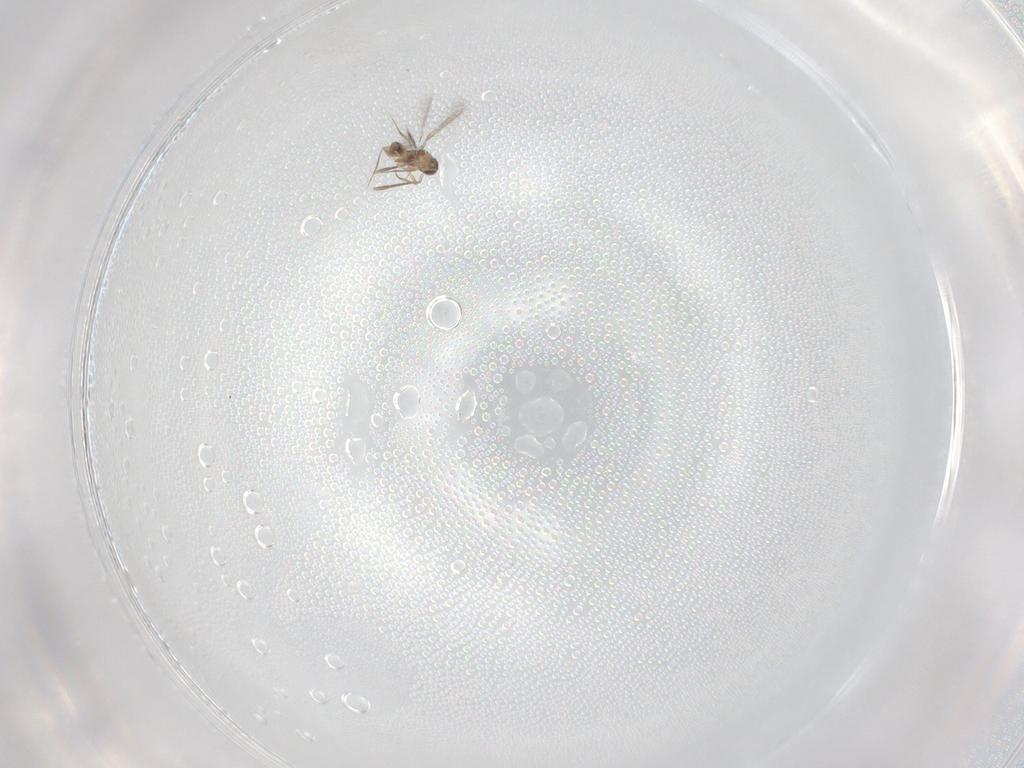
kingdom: Animalia
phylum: Arthropoda
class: Insecta
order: Hymenoptera
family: Mymaridae
